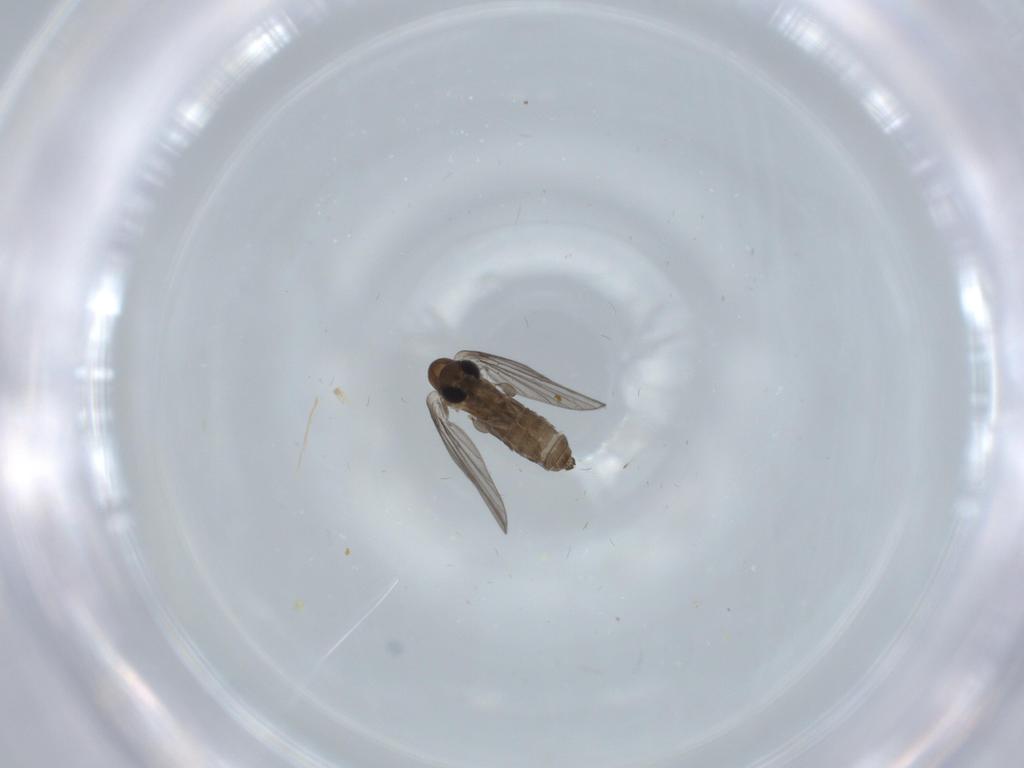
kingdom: Animalia
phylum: Arthropoda
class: Insecta
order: Diptera
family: Psychodidae
